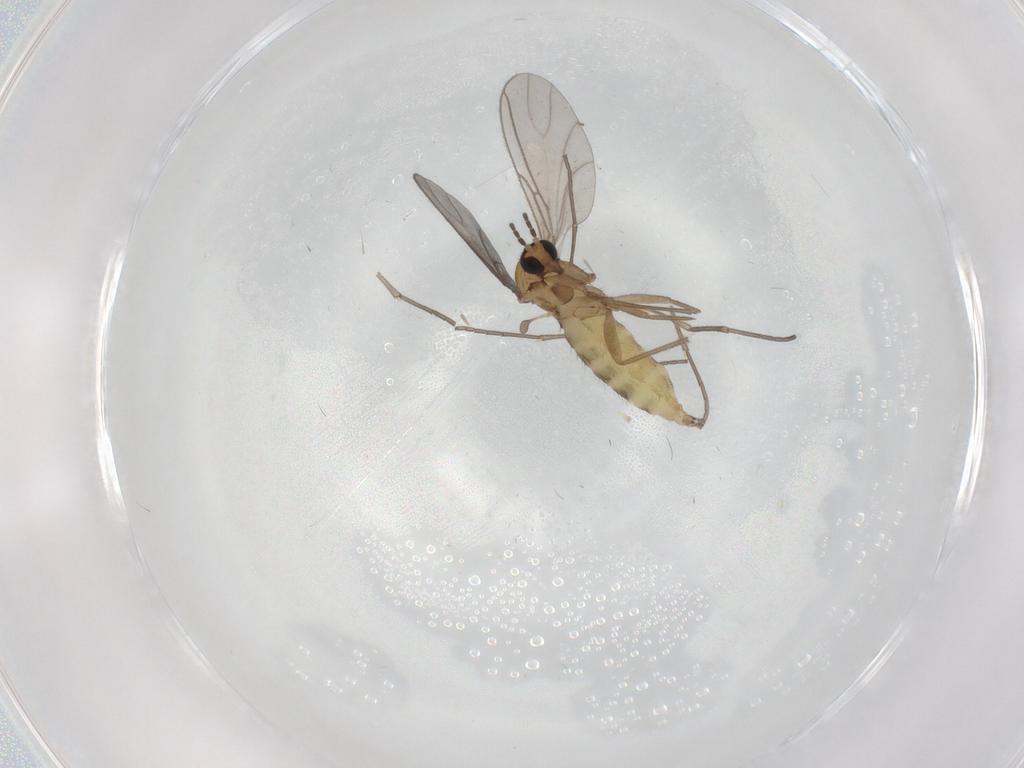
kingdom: Animalia
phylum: Arthropoda
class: Insecta
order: Diptera
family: Sciaridae
